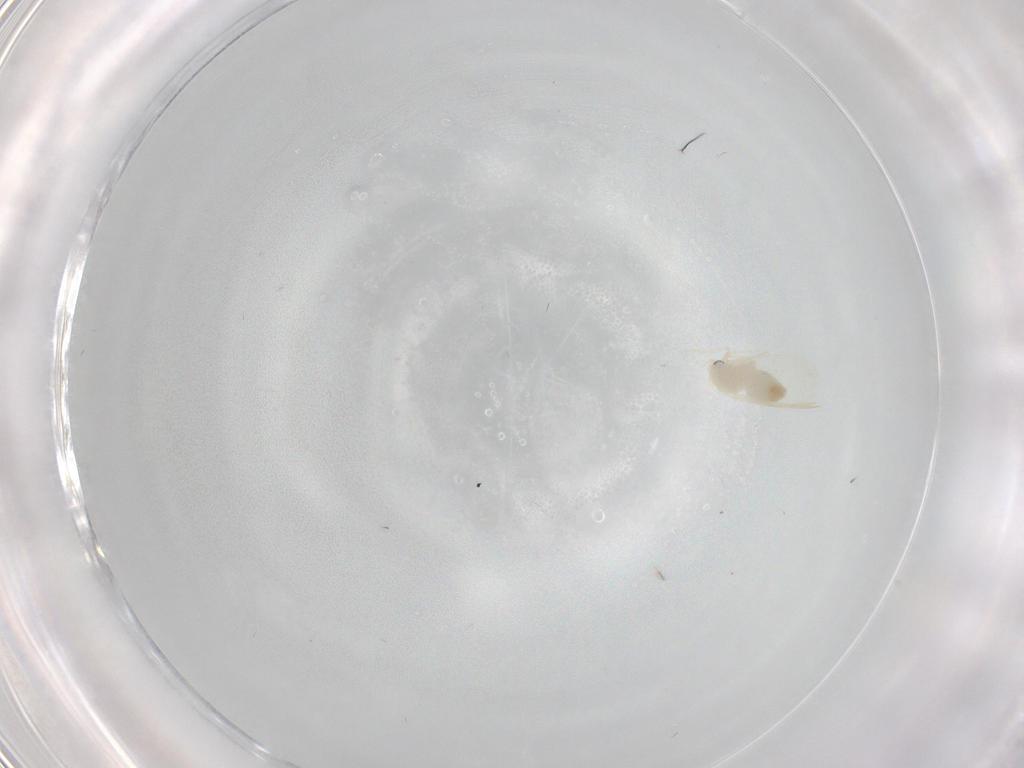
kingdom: Animalia
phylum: Arthropoda
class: Insecta
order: Hemiptera
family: Aleyrodidae
